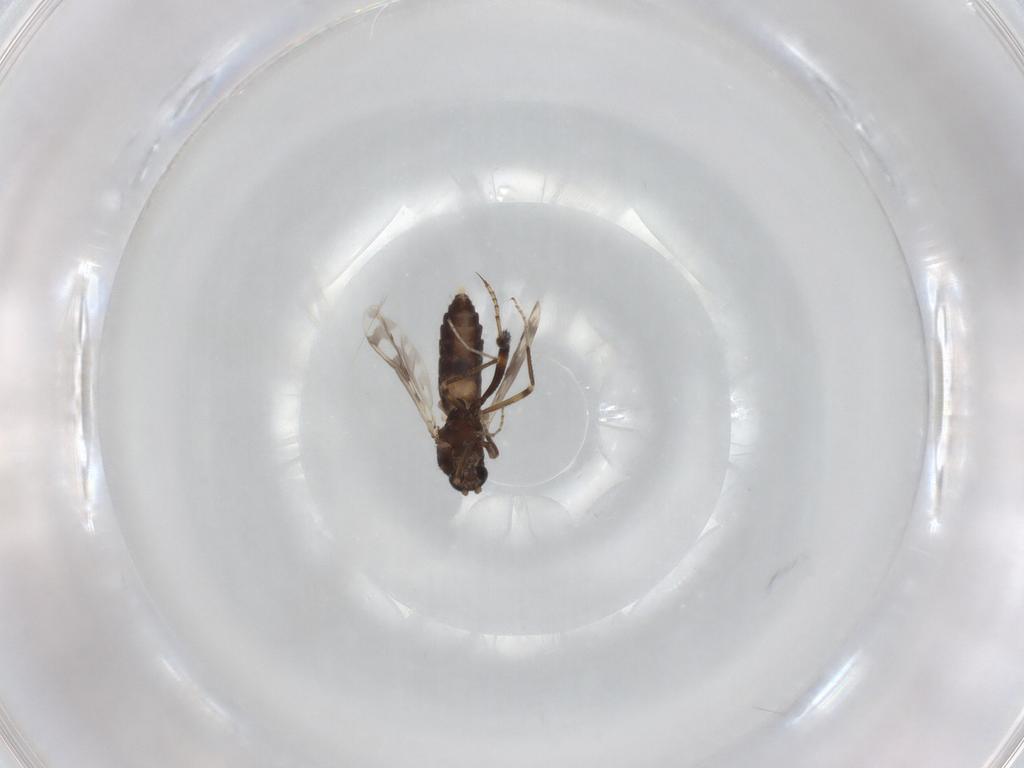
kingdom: Animalia
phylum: Arthropoda
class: Insecta
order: Diptera
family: Ceratopogonidae
